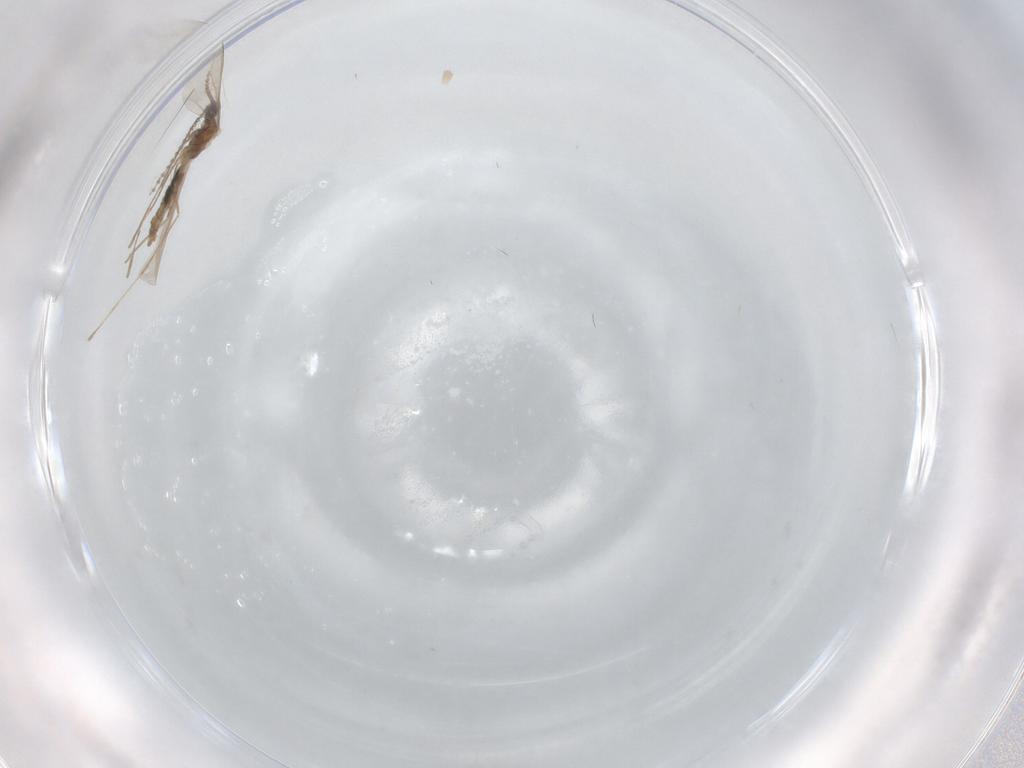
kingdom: Animalia
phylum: Arthropoda
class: Insecta
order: Diptera
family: Cecidomyiidae
